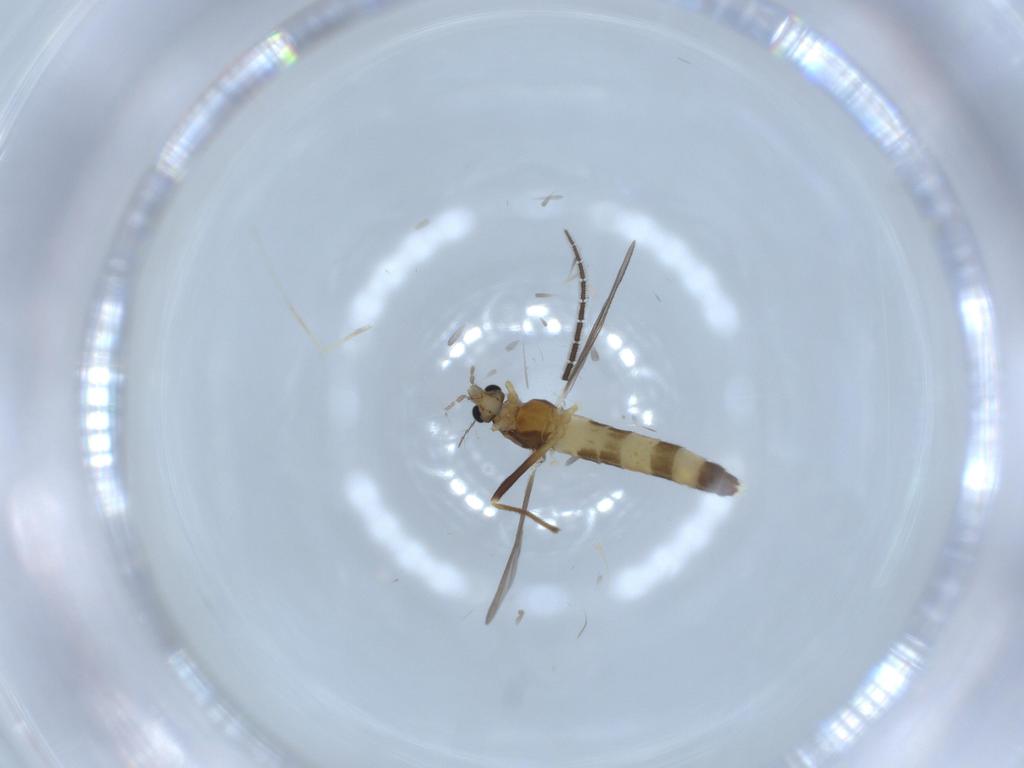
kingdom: Animalia
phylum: Arthropoda
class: Insecta
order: Diptera
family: Chironomidae
